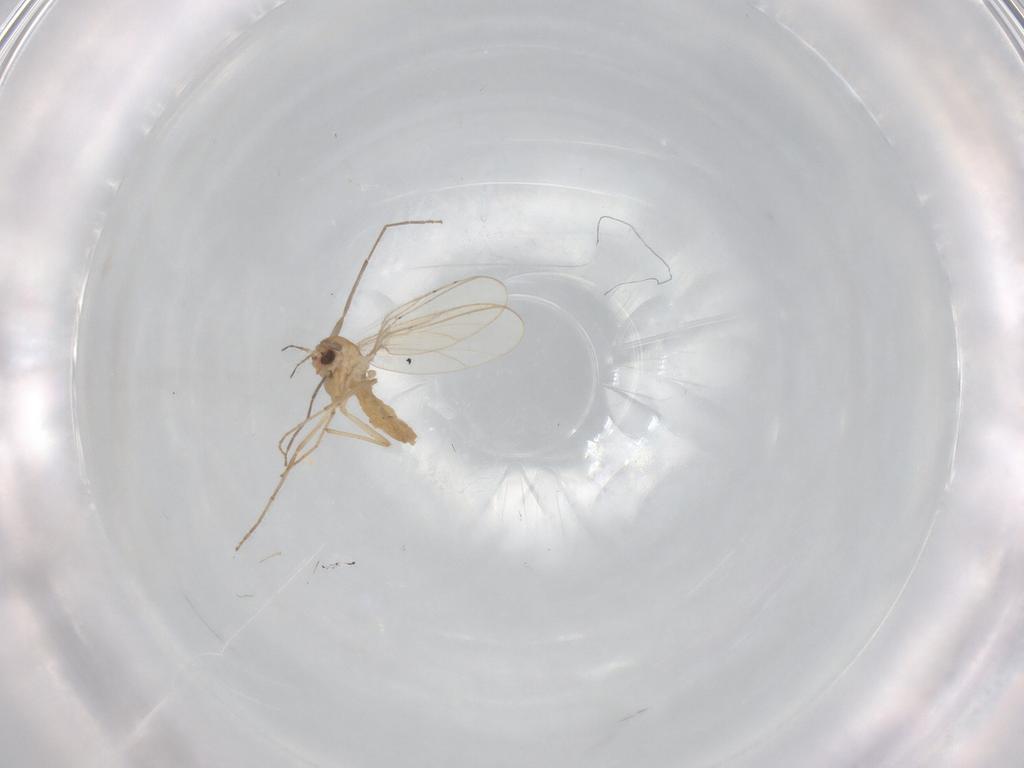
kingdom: Animalia
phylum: Arthropoda
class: Insecta
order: Diptera
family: Chironomidae
